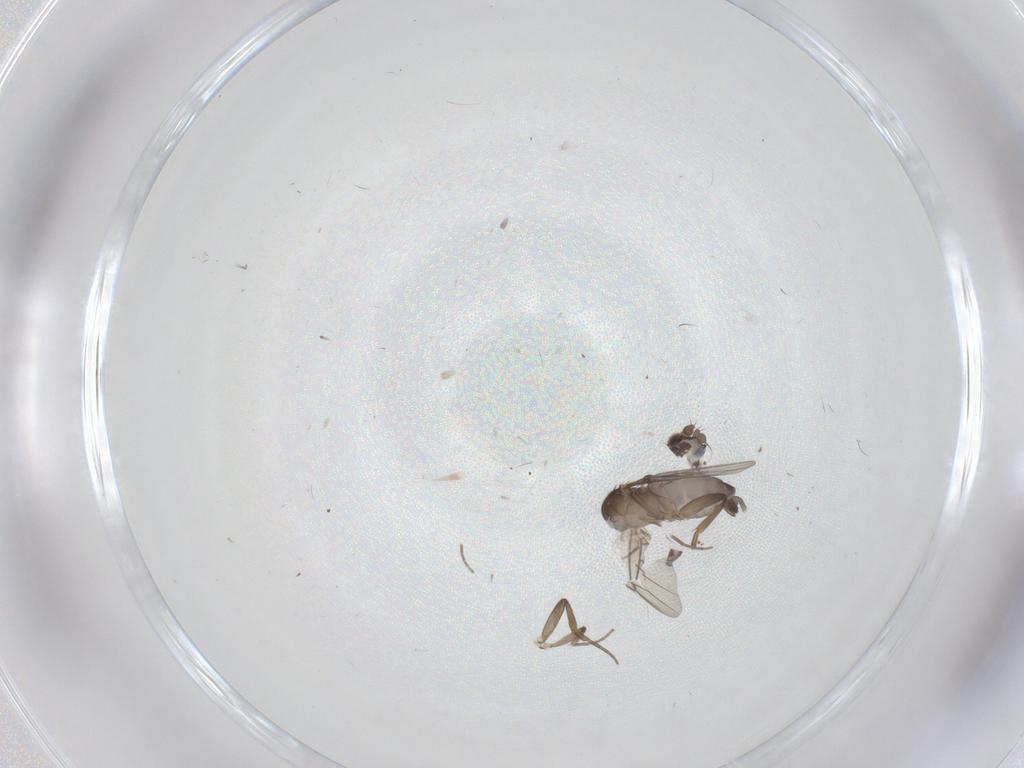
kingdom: Animalia
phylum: Arthropoda
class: Insecta
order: Diptera
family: Phoridae
